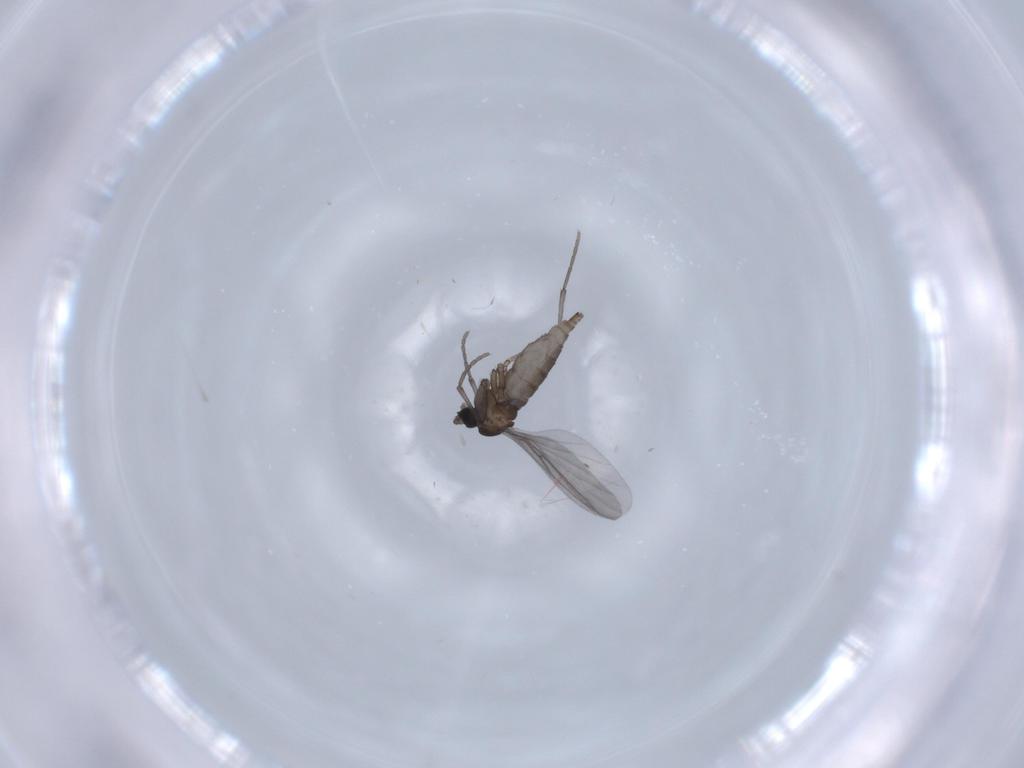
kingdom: Animalia
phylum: Arthropoda
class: Insecta
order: Diptera
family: Sciaridae
